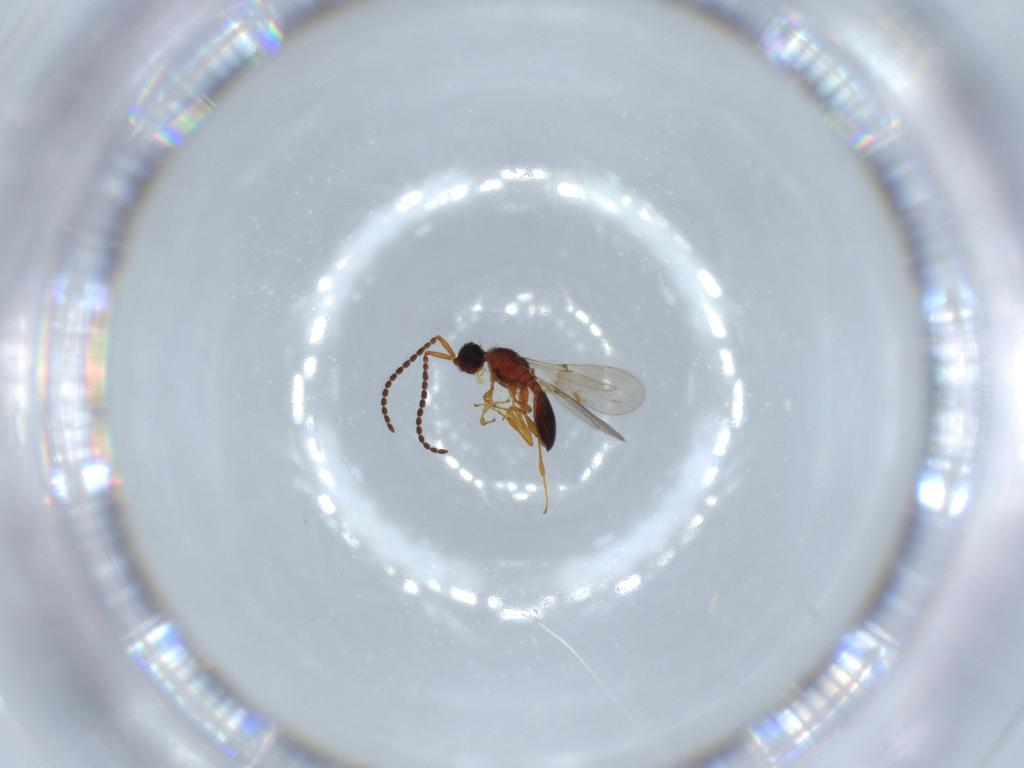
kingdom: Animalia
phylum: Arthropoda
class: Insecta
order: Hymenoptera
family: Diapriidae
